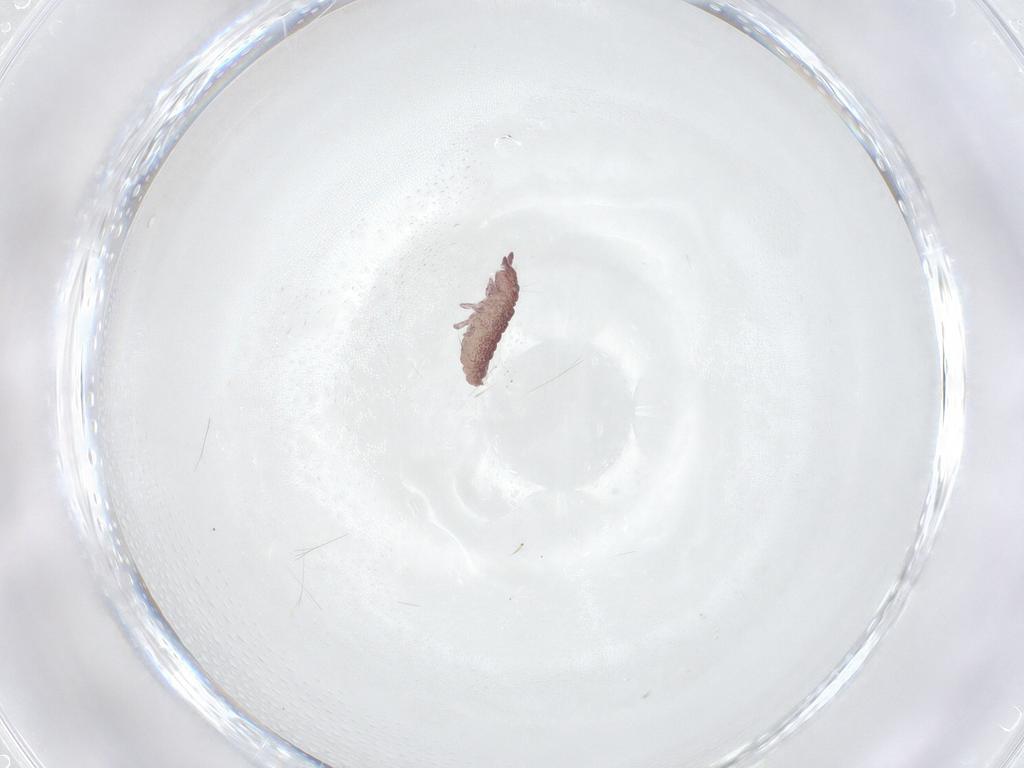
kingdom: Animalia
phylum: Arthropoda
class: Collembola
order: Poduromorpha
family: Hypogastruridae
